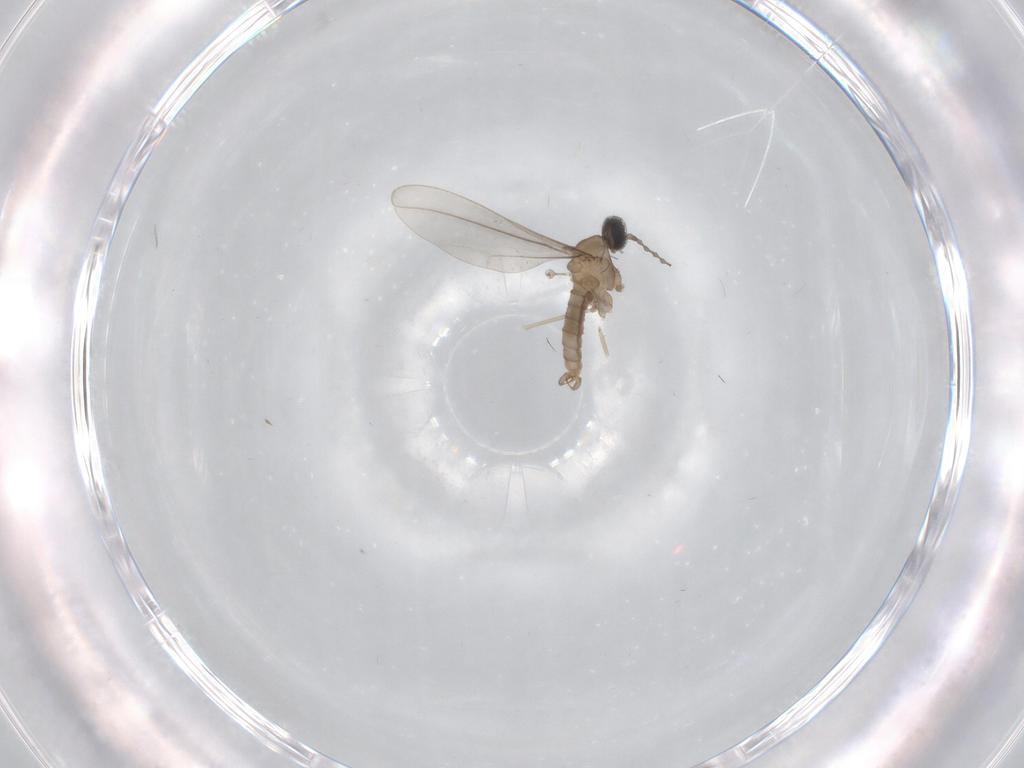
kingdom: Animalia
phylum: Arthropoda
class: Insecta
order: Diptera
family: Cecidomyiidae
